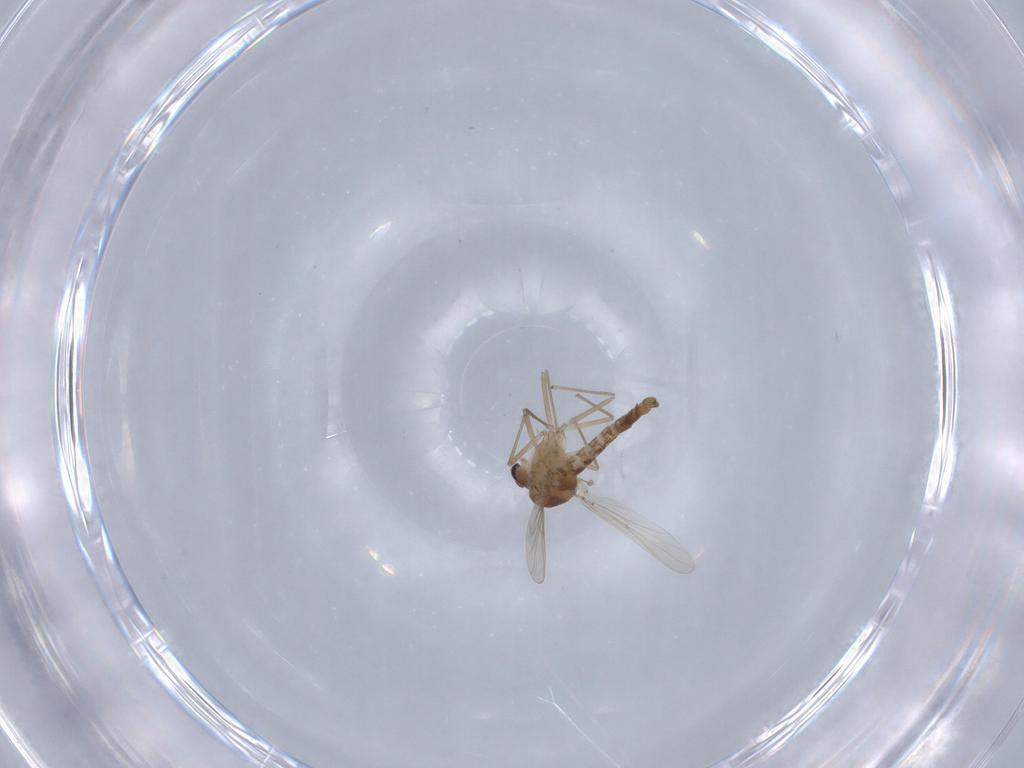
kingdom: Animalia
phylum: Arthropoda
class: Insecta
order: Diptera
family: Chironomidae
